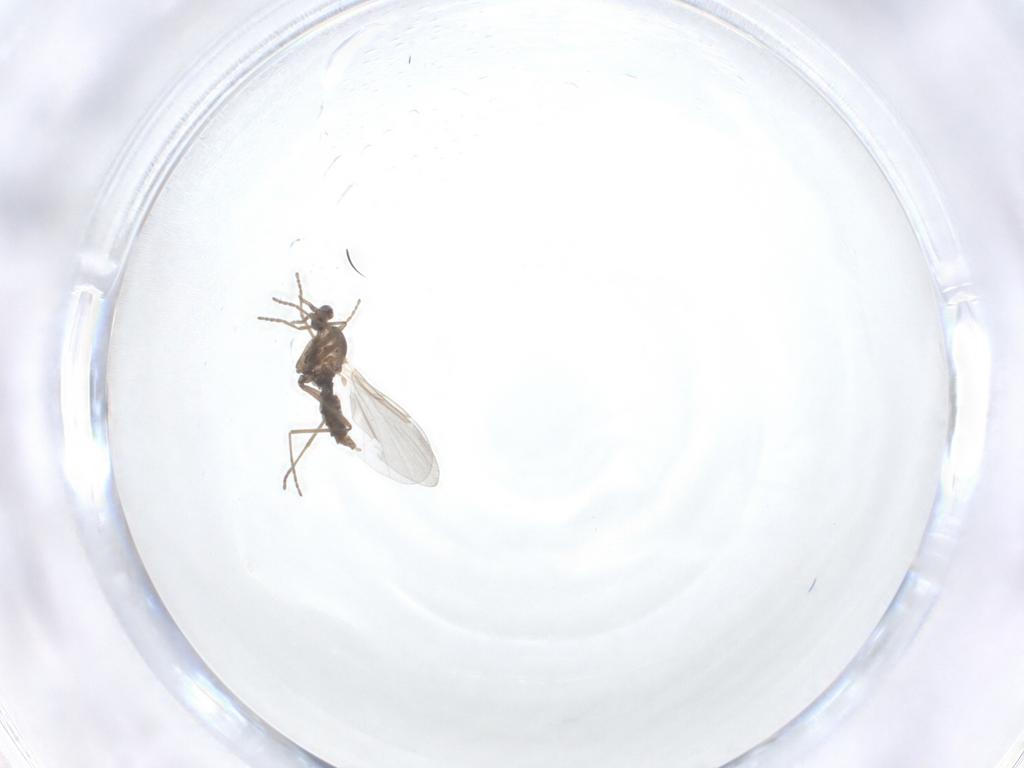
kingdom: Animalia
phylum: Arthropoda
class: Insecta
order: Diptera
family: Cecidomyiidae
